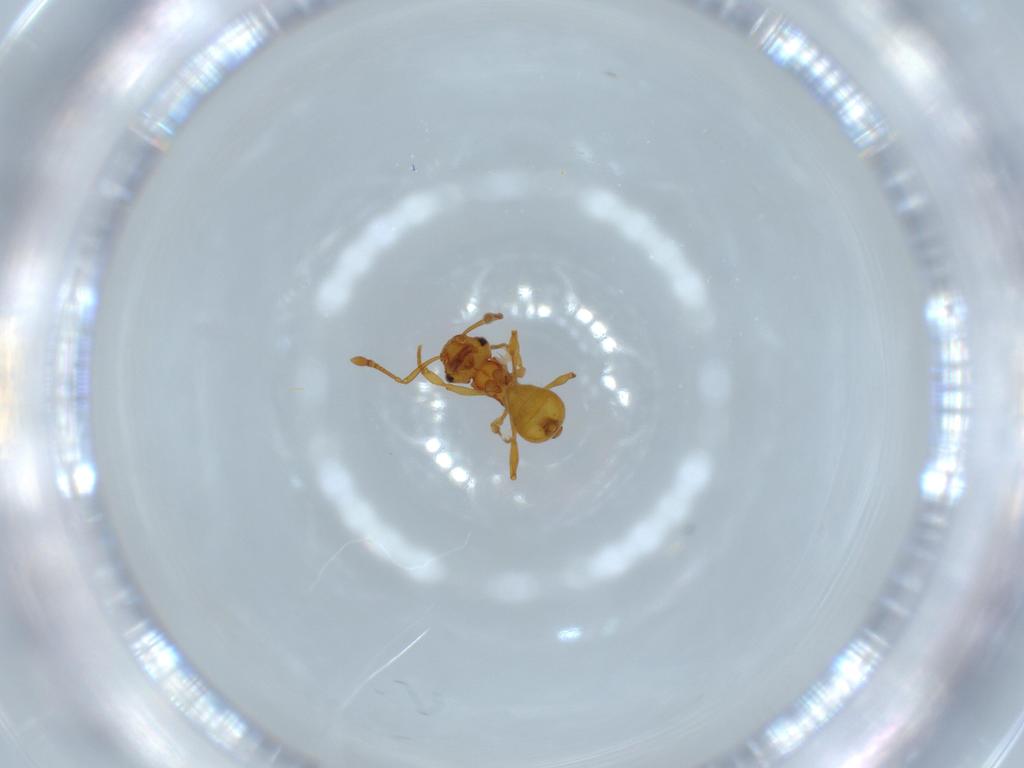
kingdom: Animalia
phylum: Arthropoda
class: Insecta
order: Hymenoptera
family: Formicidae
